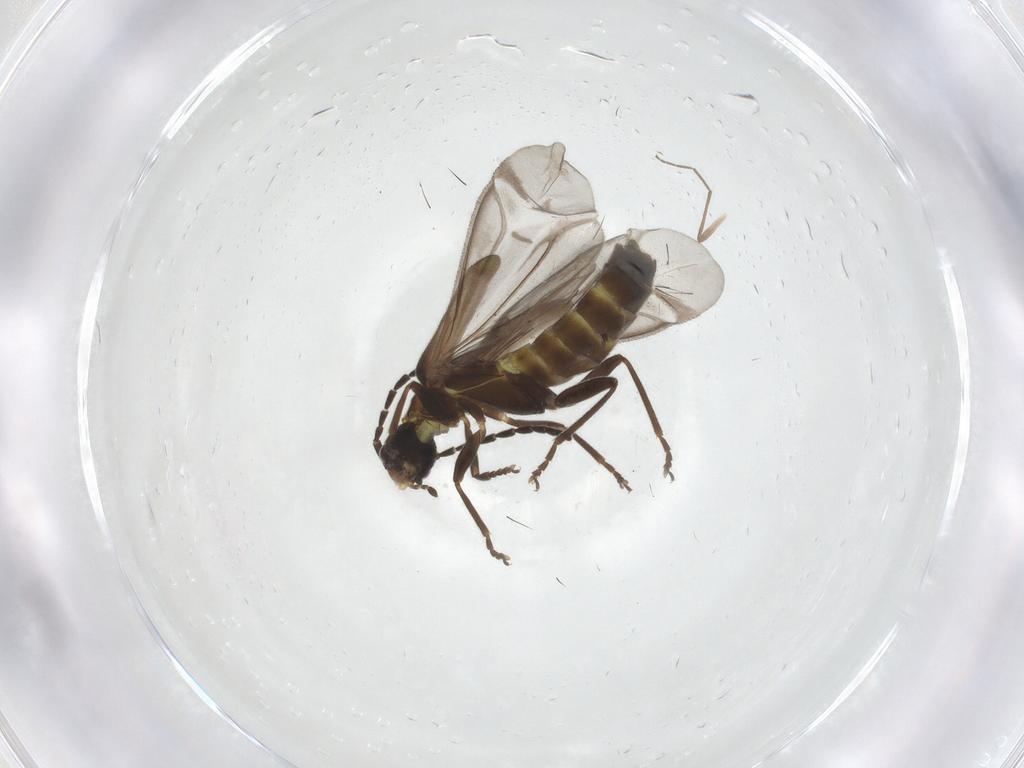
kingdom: Animalia
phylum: Arthropoda
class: Insecta
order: Coleoptera
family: Cantharidae
